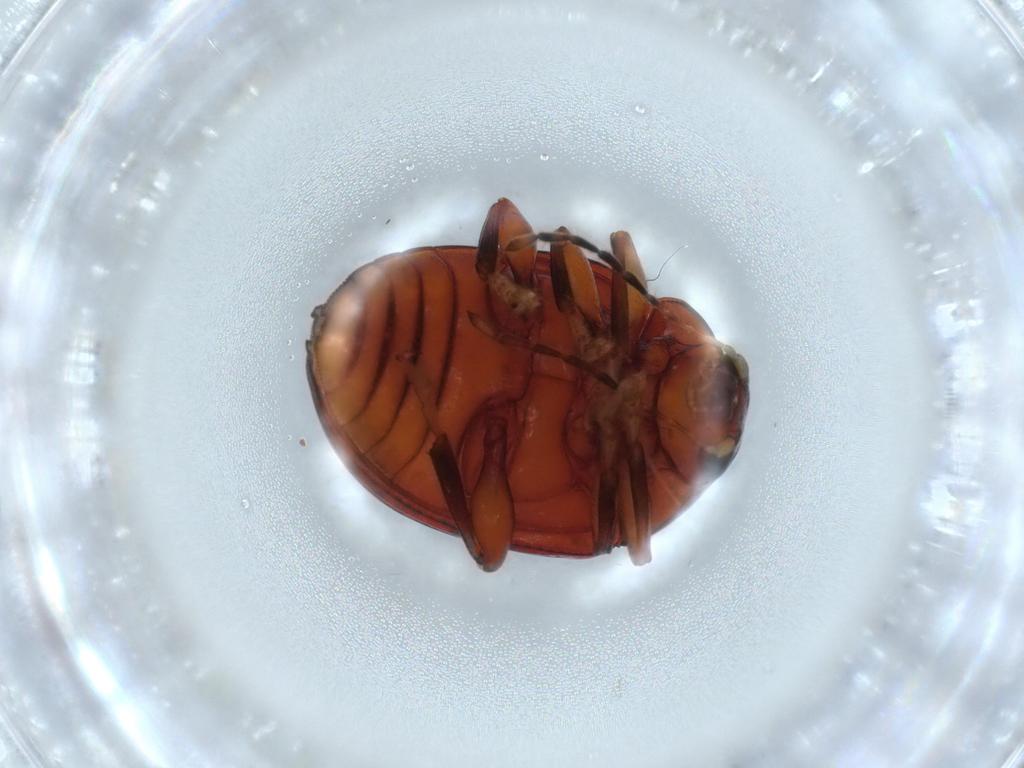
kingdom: Animalia
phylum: Arthropoda
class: Insecta
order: Coleoptera
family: Chrysomelidae
